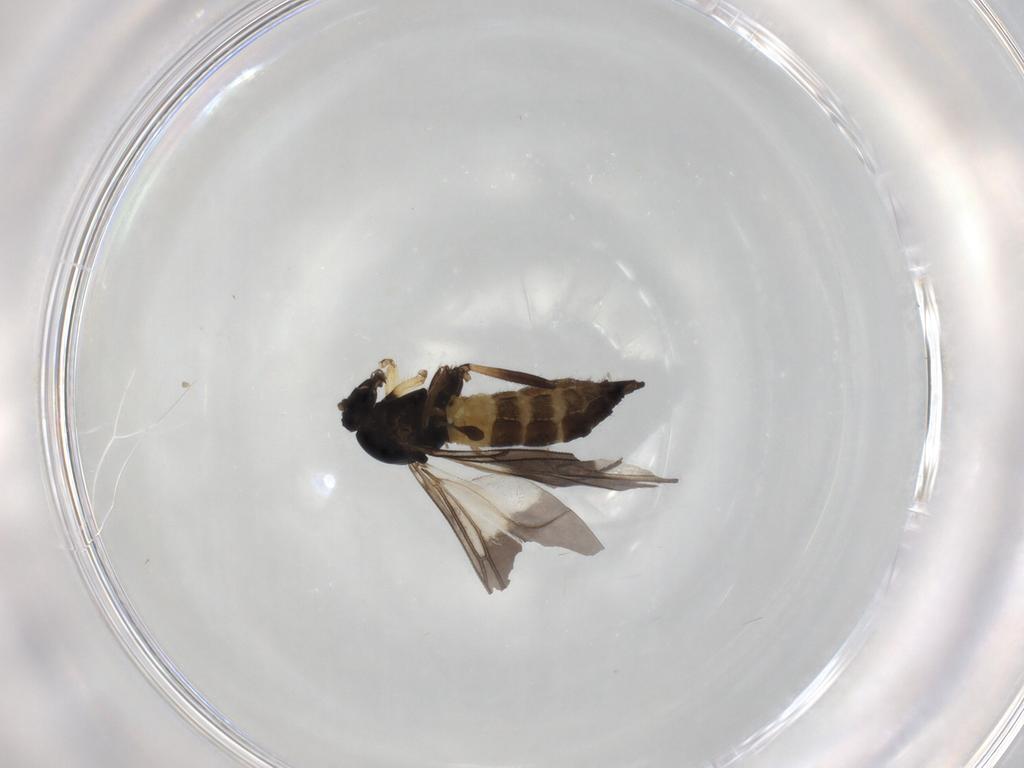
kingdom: Animalia
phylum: Arthropoda
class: Insecta
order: Diptera
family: Sciaridae
